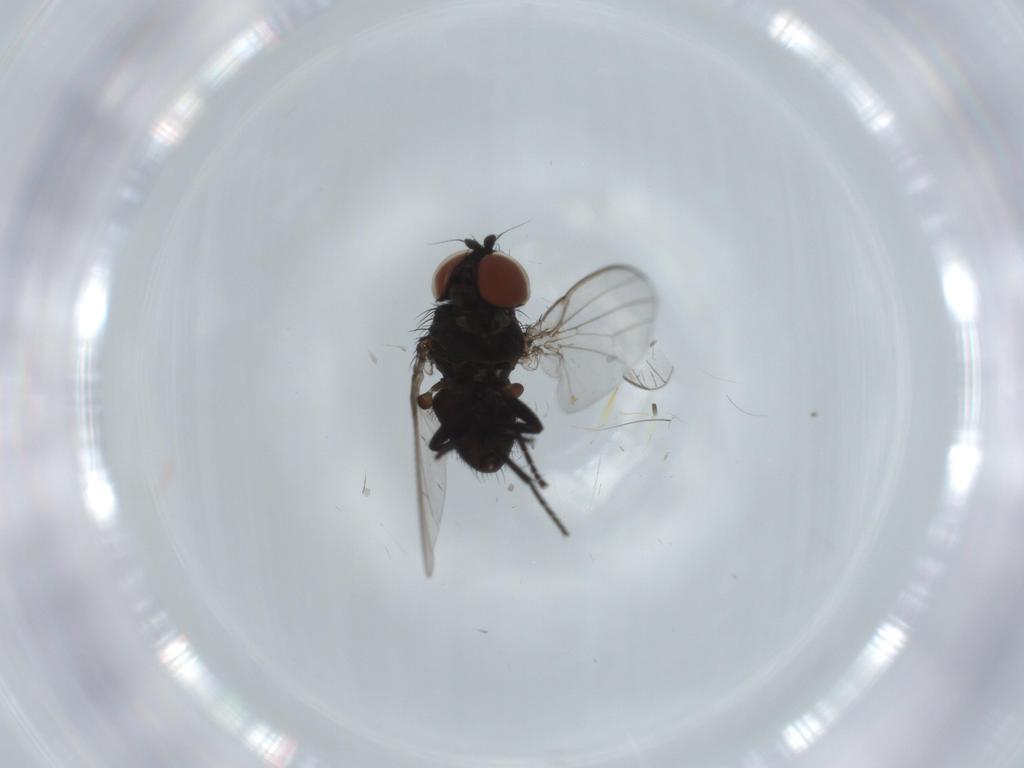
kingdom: Animalia
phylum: Arthropoda
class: Insecta
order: Diptera
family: Milichiidae
